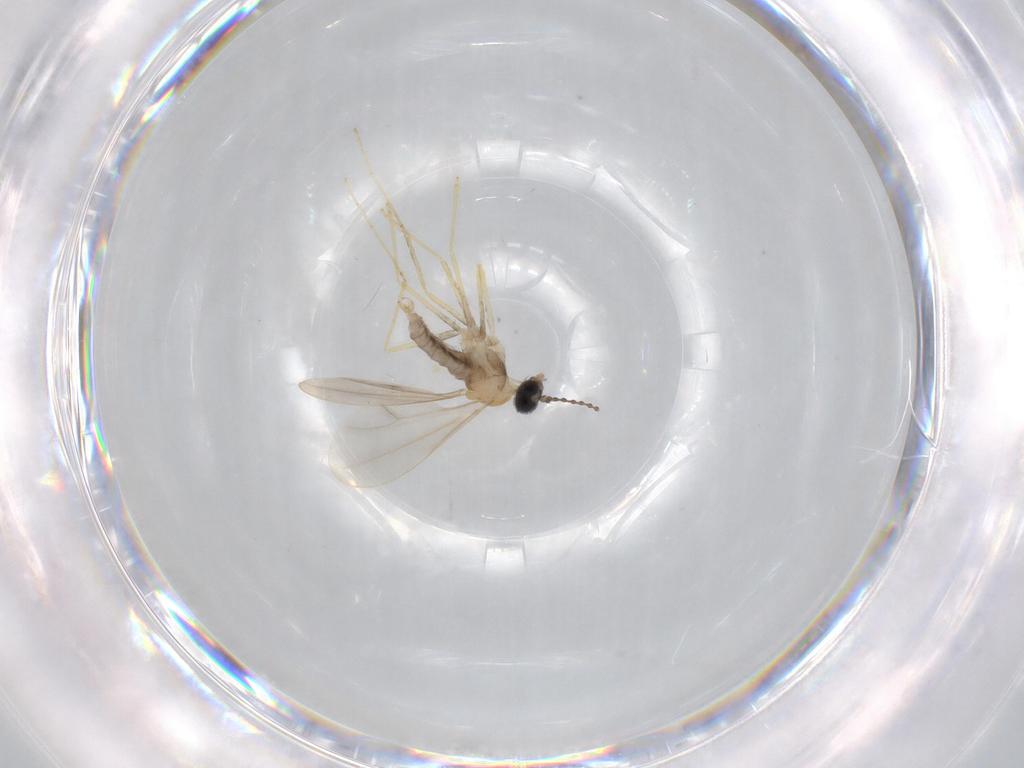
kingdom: Animalia
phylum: Arthropoda
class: Insecta
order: Diptera
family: Cecidomyiidae
